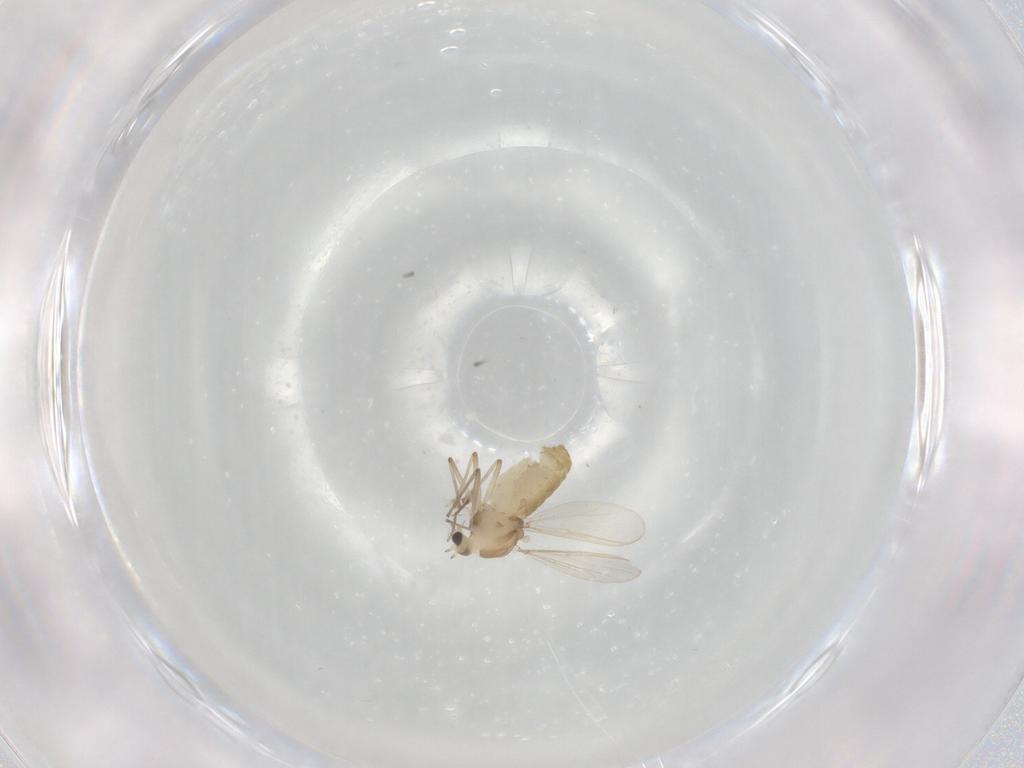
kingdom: Animalia
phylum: Arthropoda
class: Insecta
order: Diptera
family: Chironomidae
